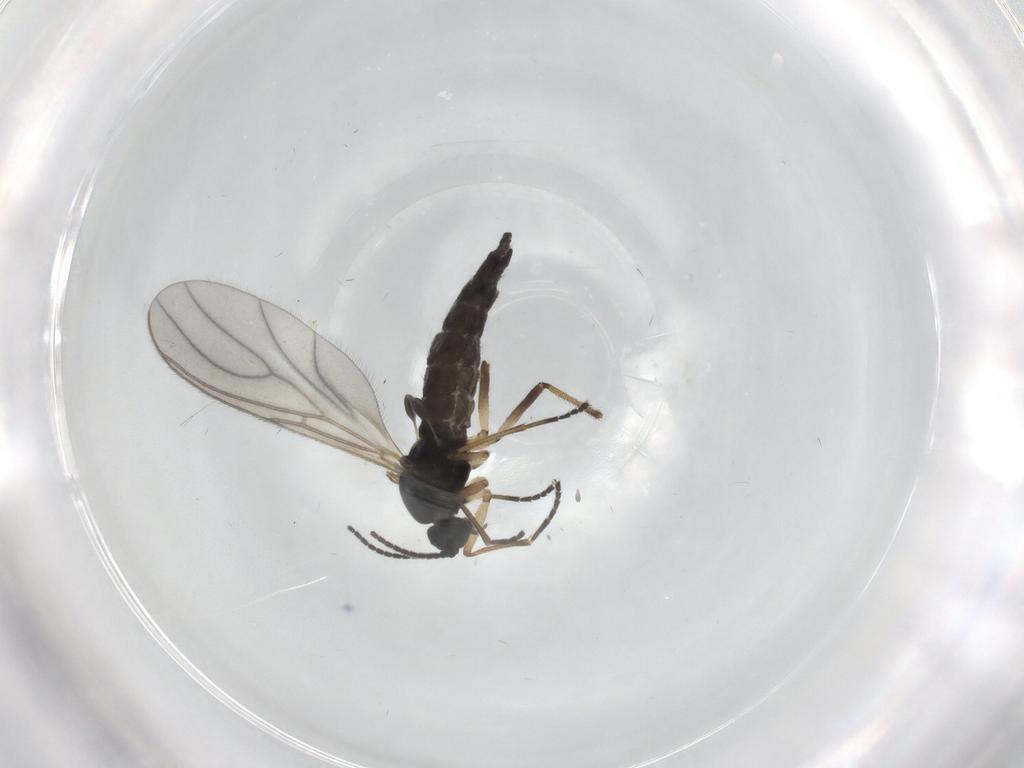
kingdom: Animalia
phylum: Arthropoda
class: Insecta
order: Diptera
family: Sciaridae
